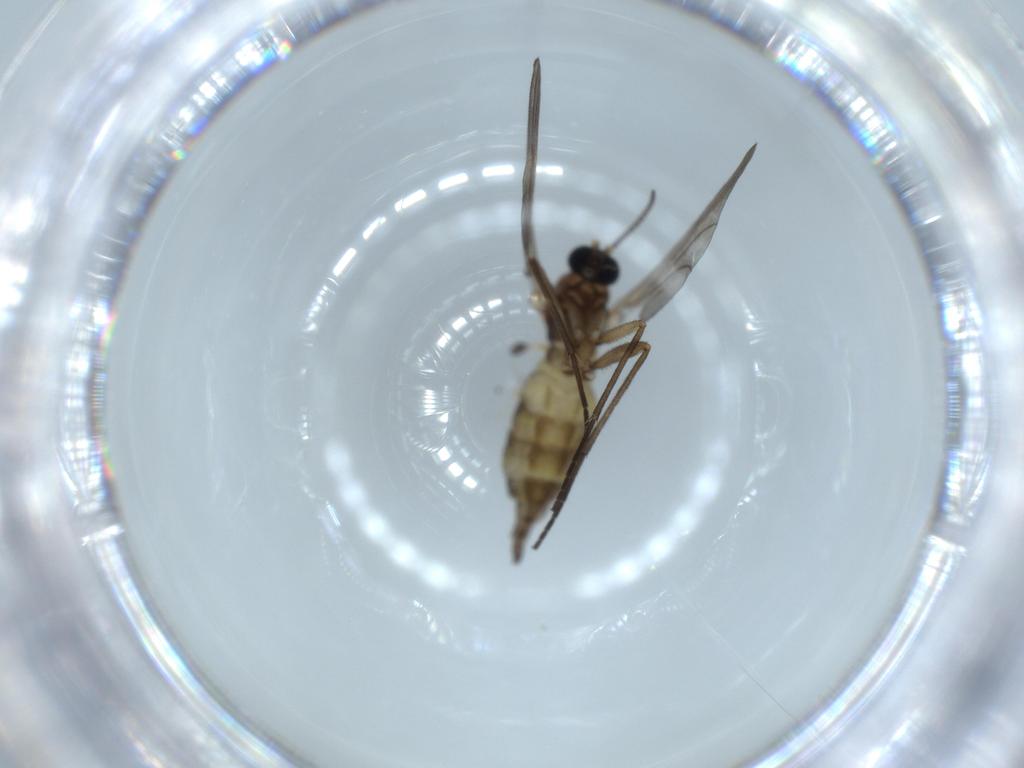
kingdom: Animalia
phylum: Arthropoda
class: Insecta
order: Diptera
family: Sciaridae
